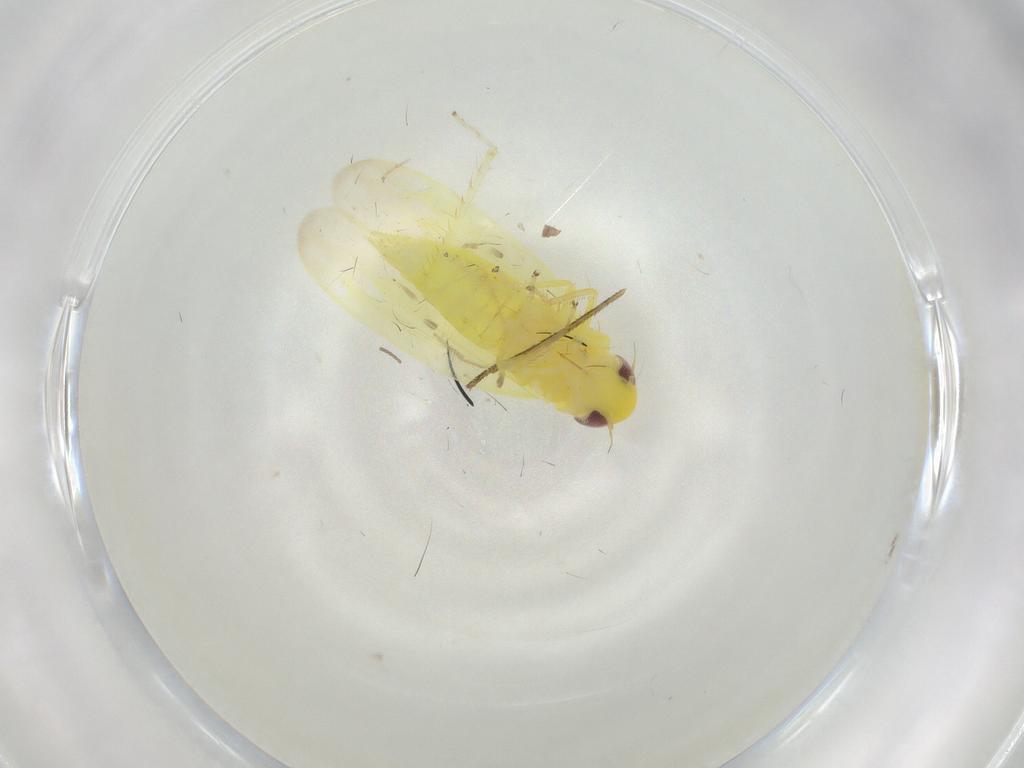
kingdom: Animalia
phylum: Arthropoda
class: Insecta
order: Hemiptera
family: Cicadellidae
